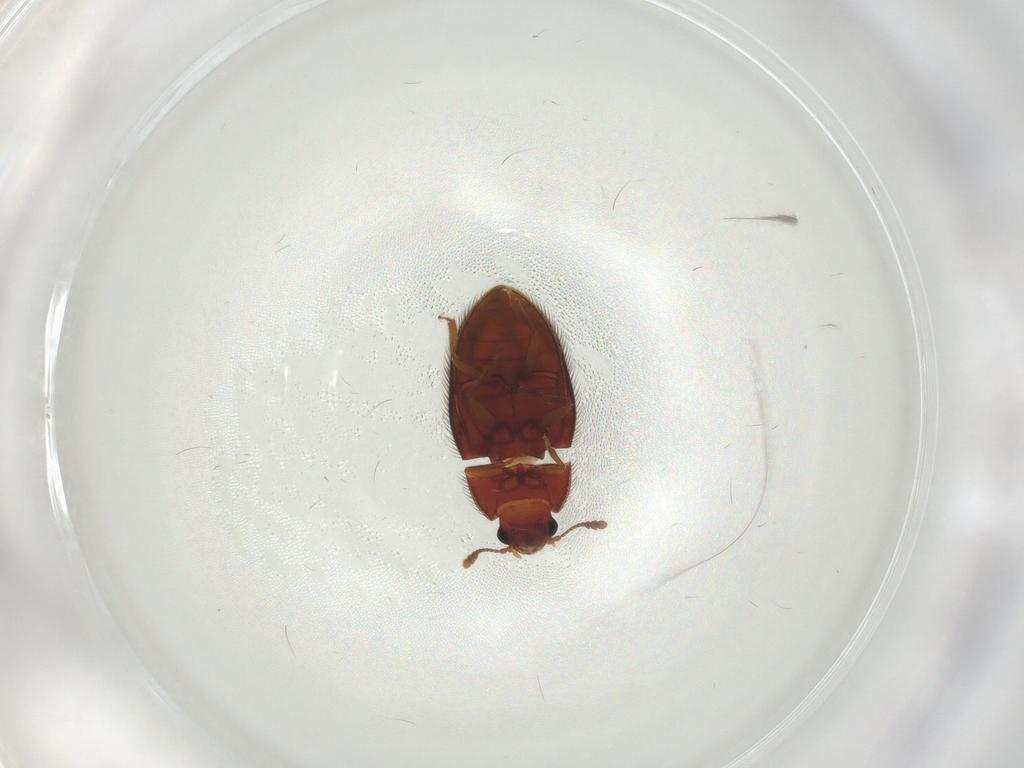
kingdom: Animalia
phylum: Arthropoda
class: Insecta
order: Coleoptera
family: Biphyllidae
